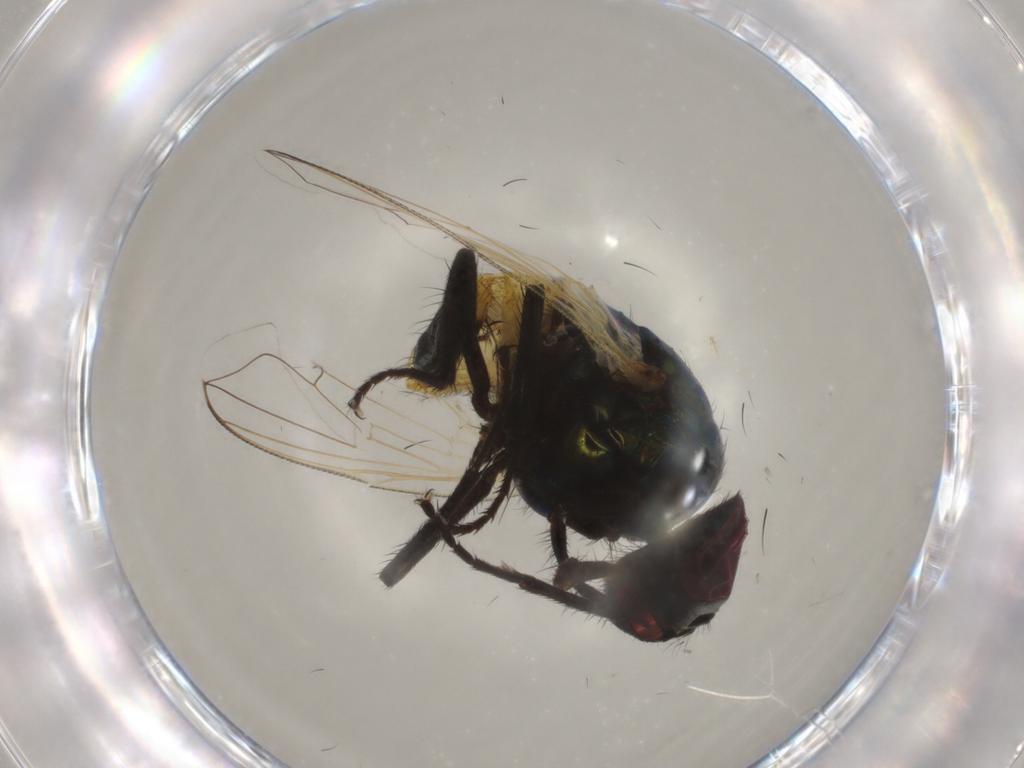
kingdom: Animalia
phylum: Arthropoda
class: Insecta
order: Diptera
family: Muscidae
